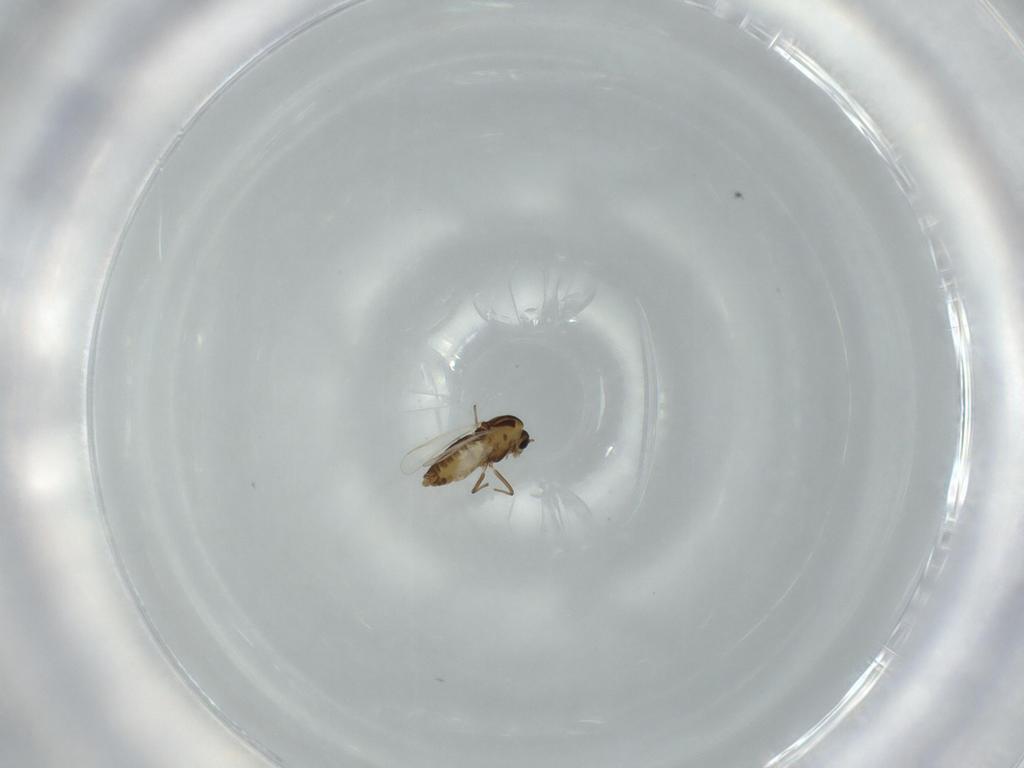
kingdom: Animalia
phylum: Arthropoda
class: Insecta
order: Diptera
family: Chironomidae
